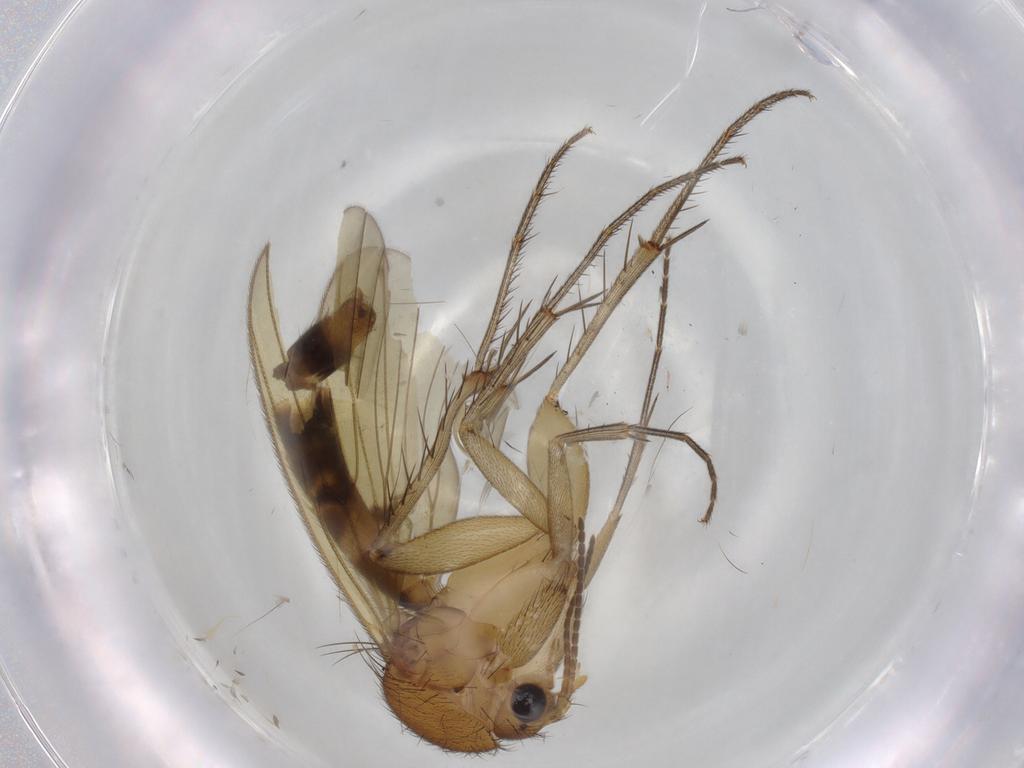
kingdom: Animalia
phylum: Arthropoda
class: Insecta
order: Diptera
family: Mycetophilidae
